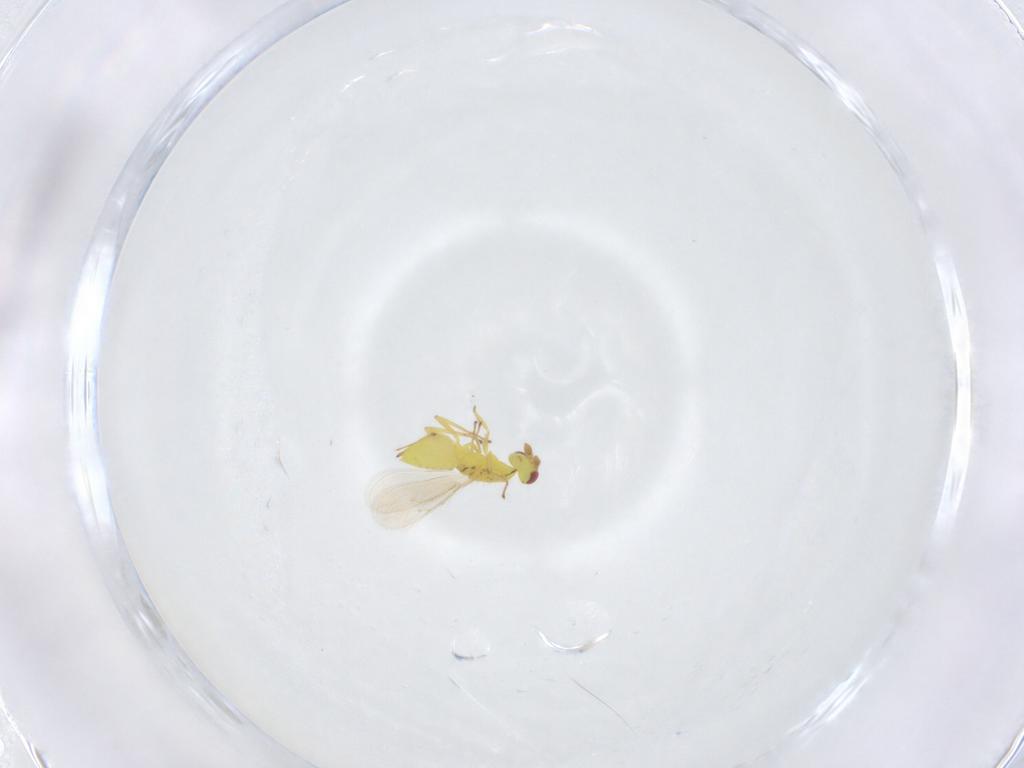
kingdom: Animalia
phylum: Arthropoda
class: Insecta
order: Hymenoptera
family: Eulophidae
